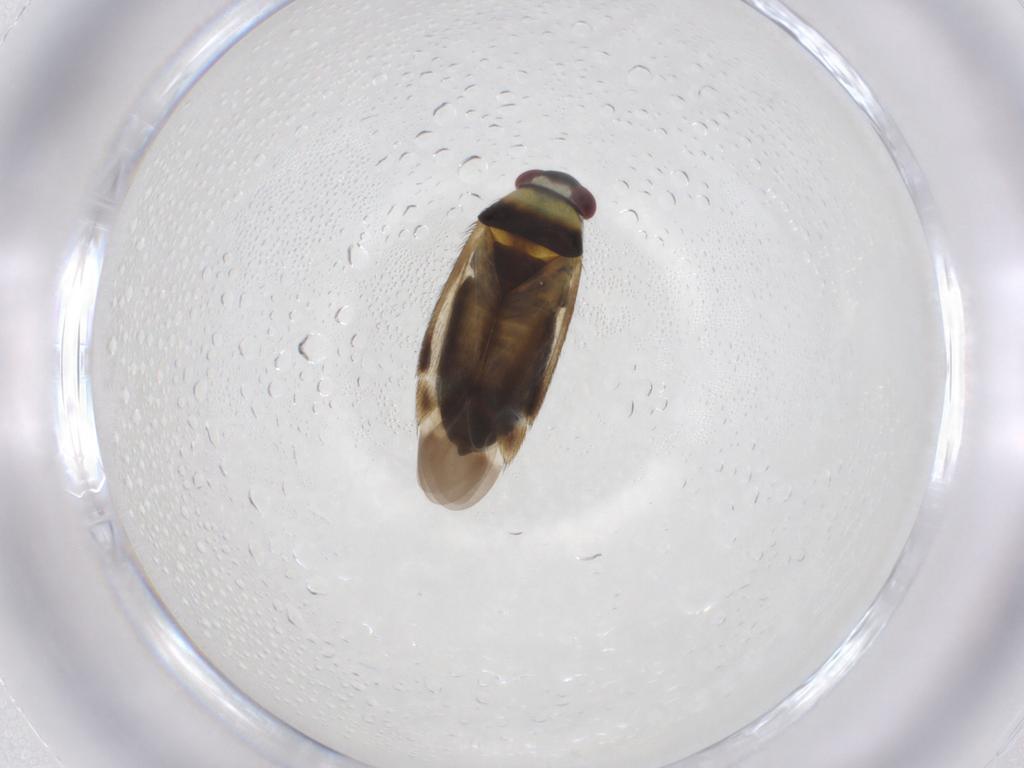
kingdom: Animalia
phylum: Arthropoda
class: Insecta
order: Hemiptera
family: Miridae
